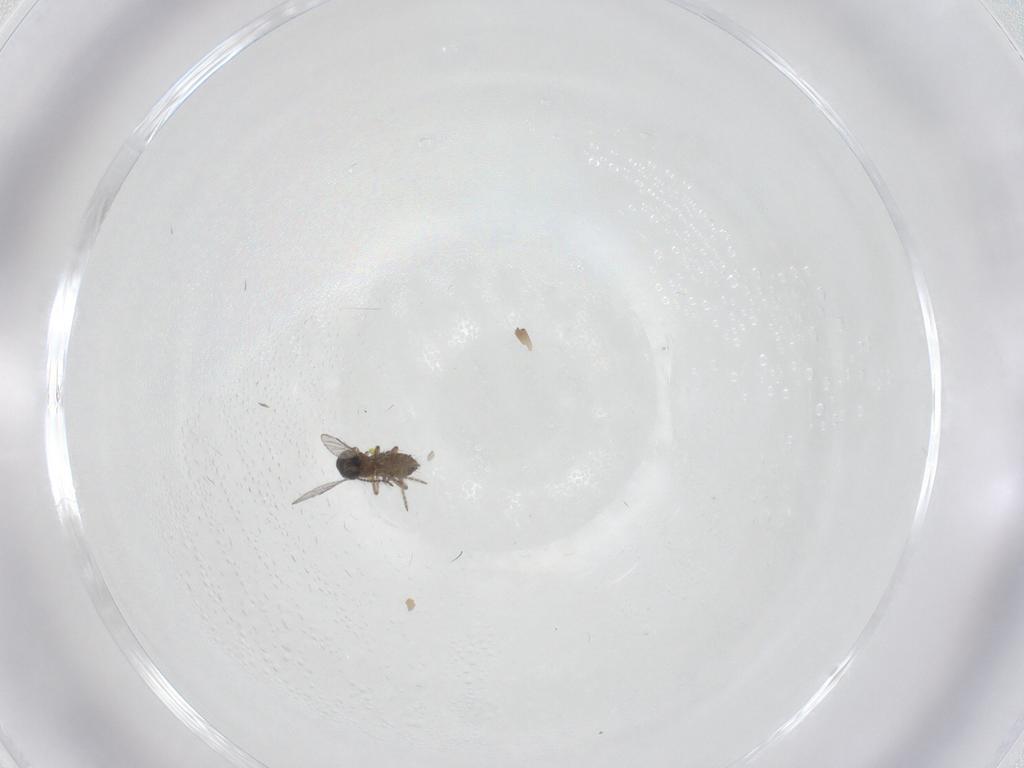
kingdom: Animalia
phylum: Arthropoda
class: Insecta
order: Diptera
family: Ceratopogonidae
